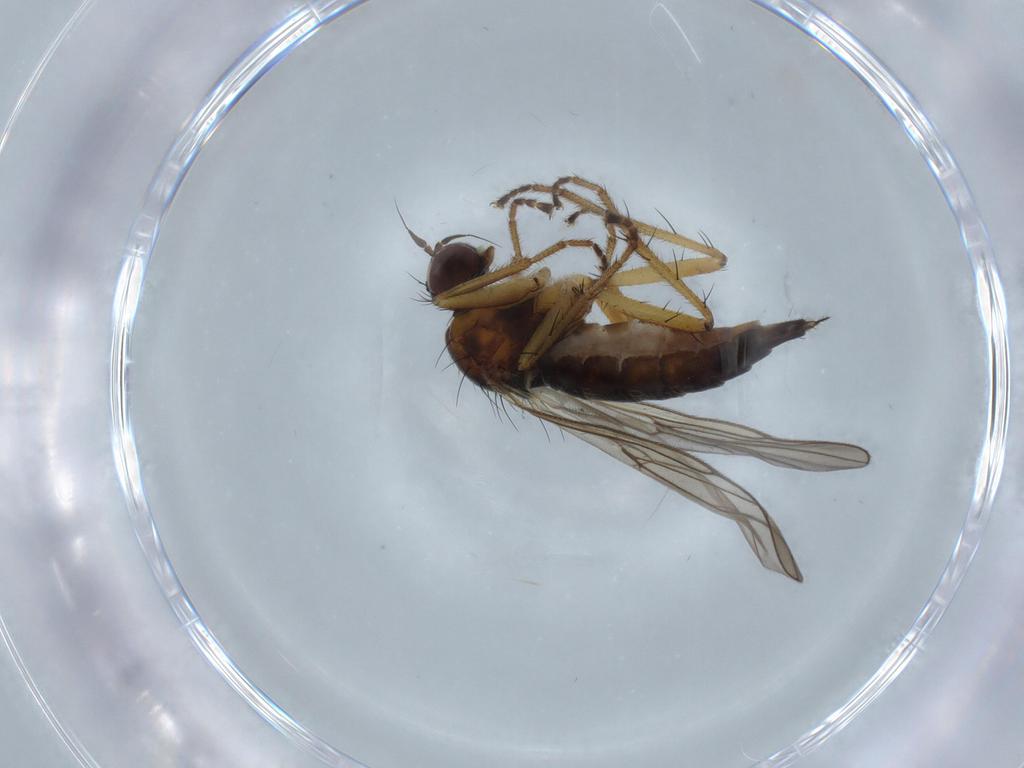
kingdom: Animalia
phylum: Arthropoda
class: Insecta
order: Diptera
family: Hybotidae
